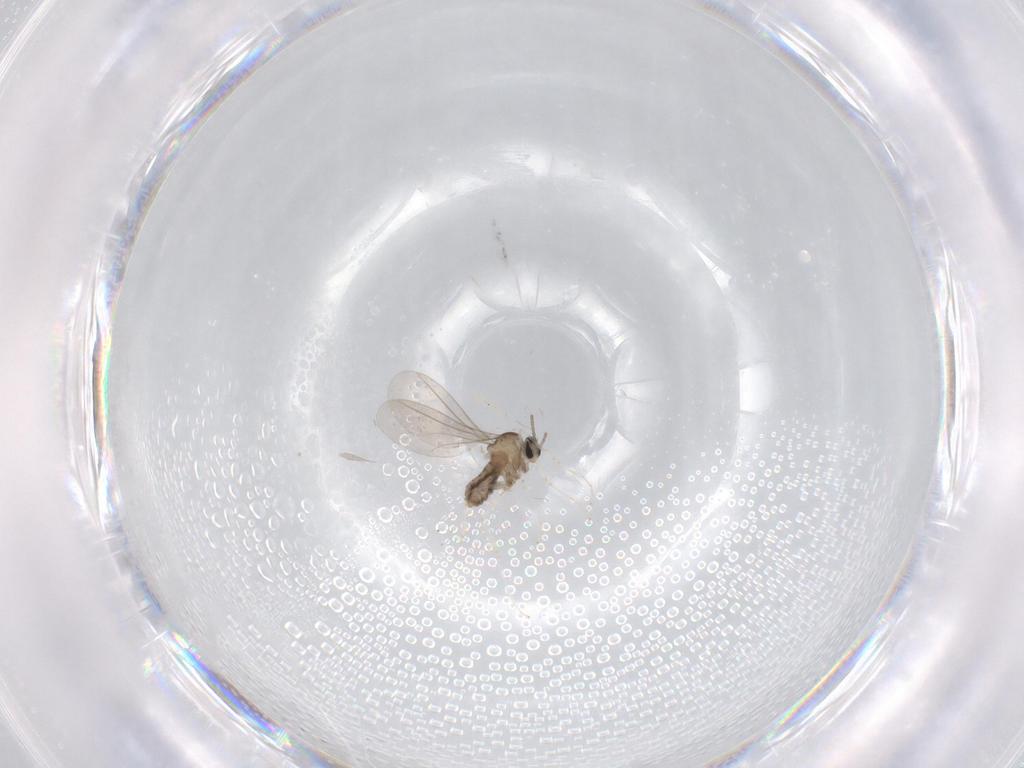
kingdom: Animalia
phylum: Arthropoda
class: Insecta
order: Diptera
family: Cecidomyiidae
